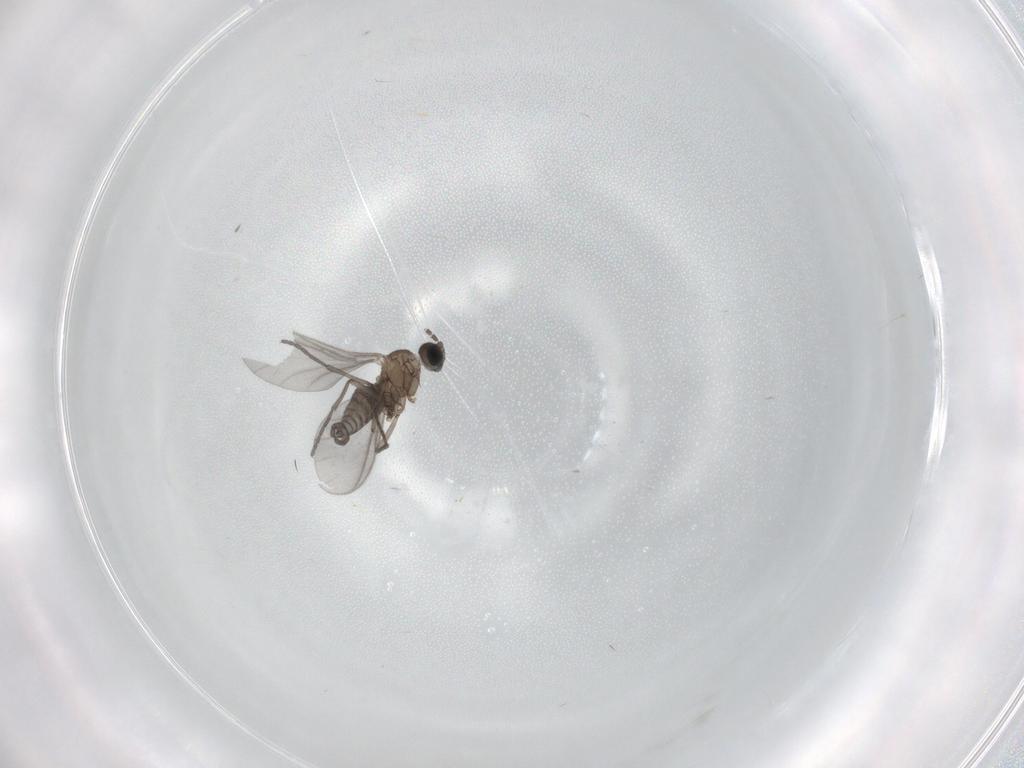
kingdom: Animalia
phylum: Arthropoda
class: Insecta
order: Diptera
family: Sciaridae
